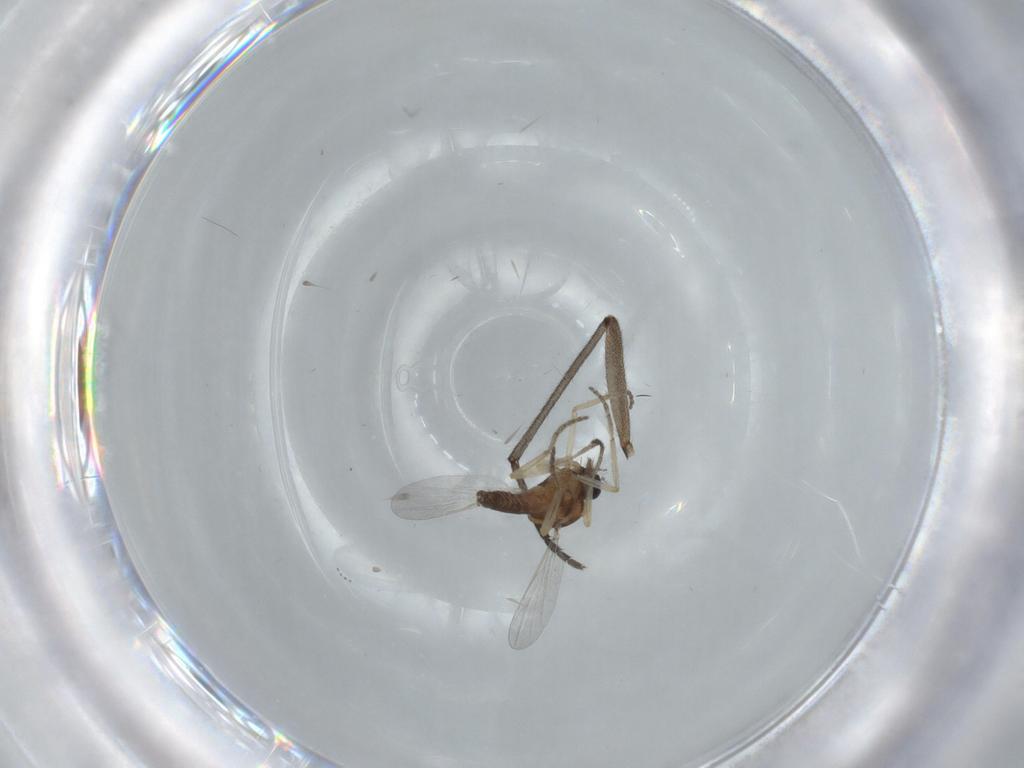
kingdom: Animalia
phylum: Arthropoda
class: Insecta
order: Diptera
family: Ceratopogonidae
